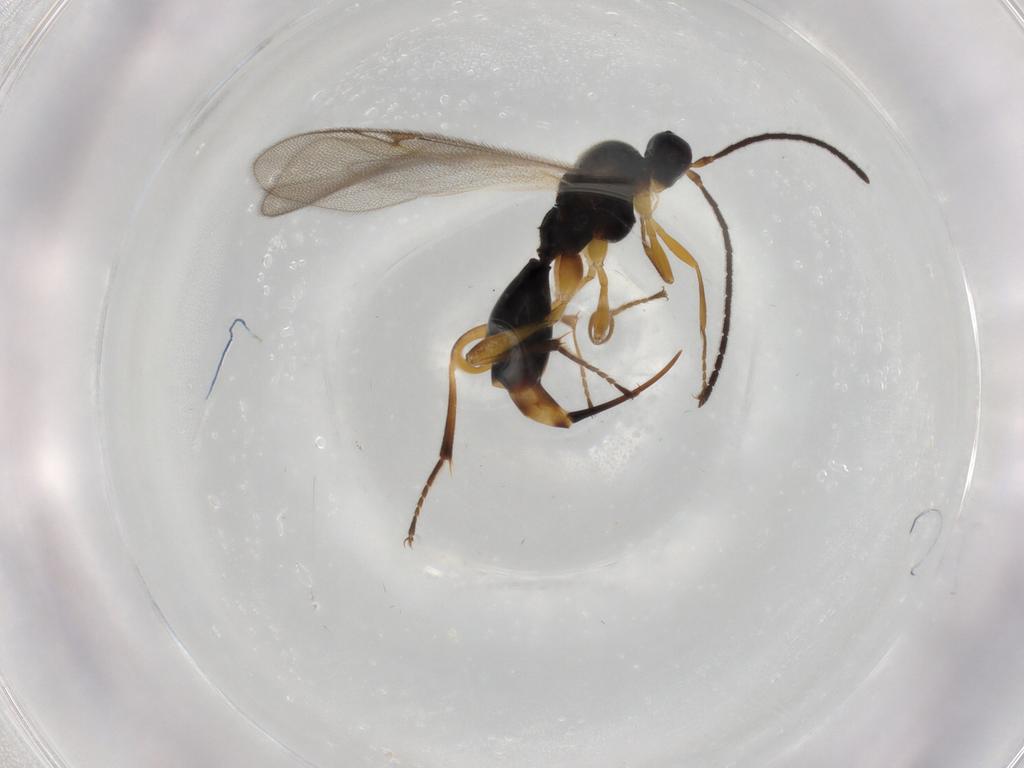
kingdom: Animalia
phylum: Arthropoda
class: Insecta
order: Hymenoptera
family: Proctotrupidae
